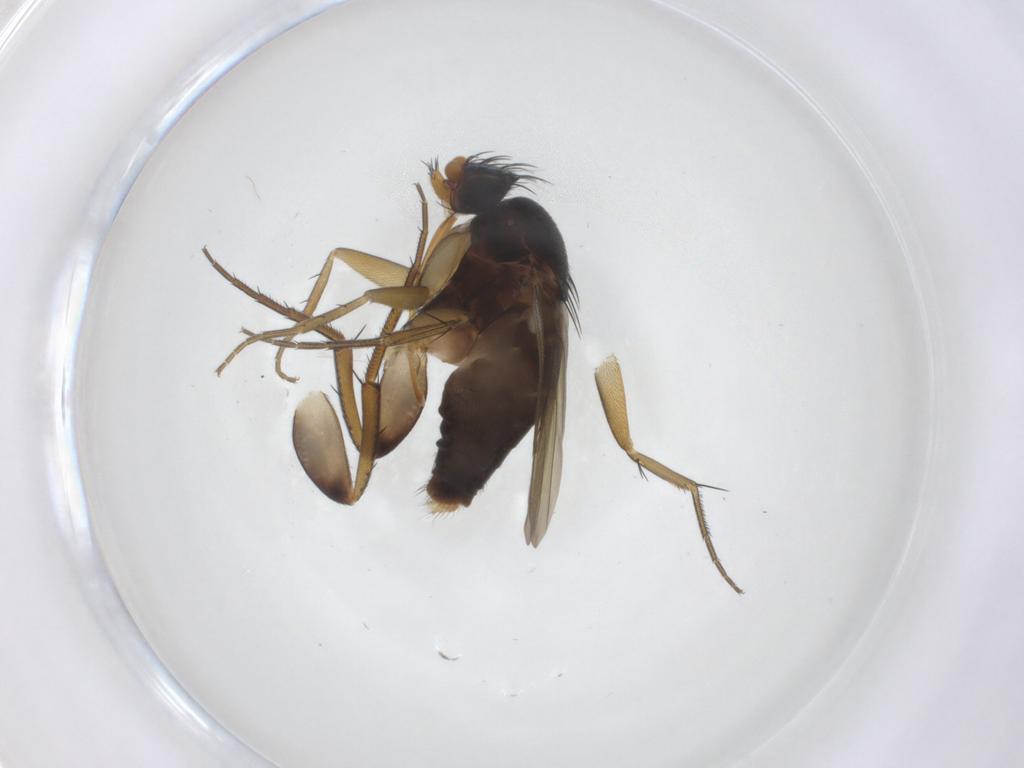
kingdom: Animalia
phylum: Arthropoda
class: Insecta
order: Diptera
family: Phoridae
